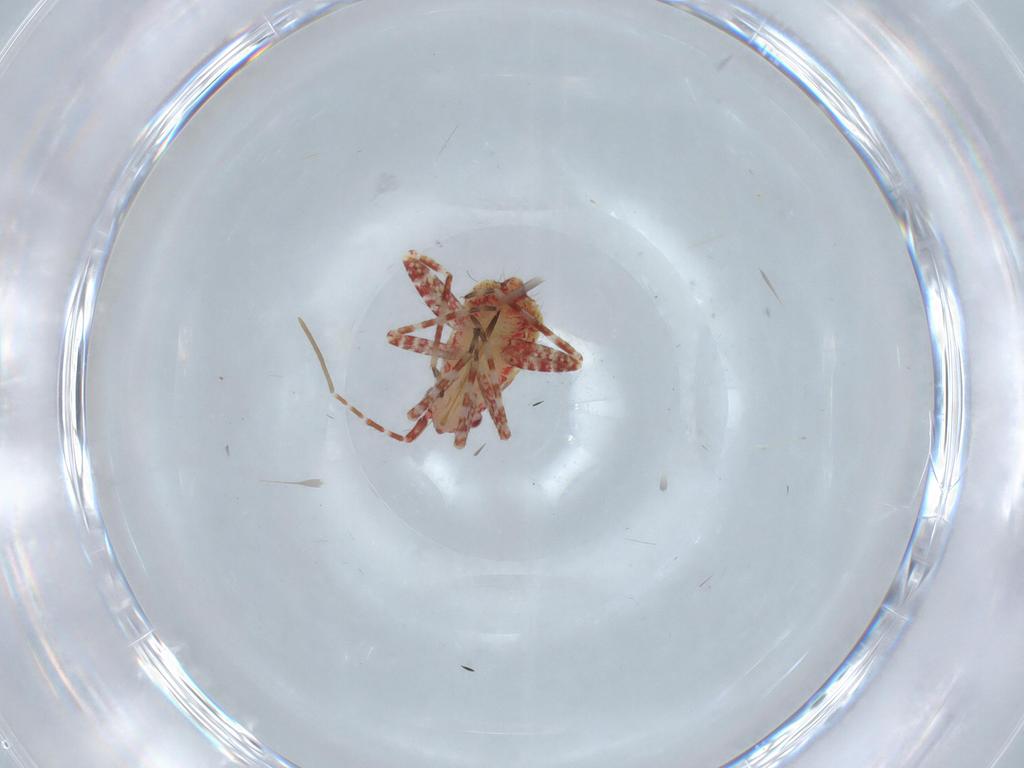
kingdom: Animalia
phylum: Arthropoda
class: Insecta
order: Hemiptera
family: Miridae
